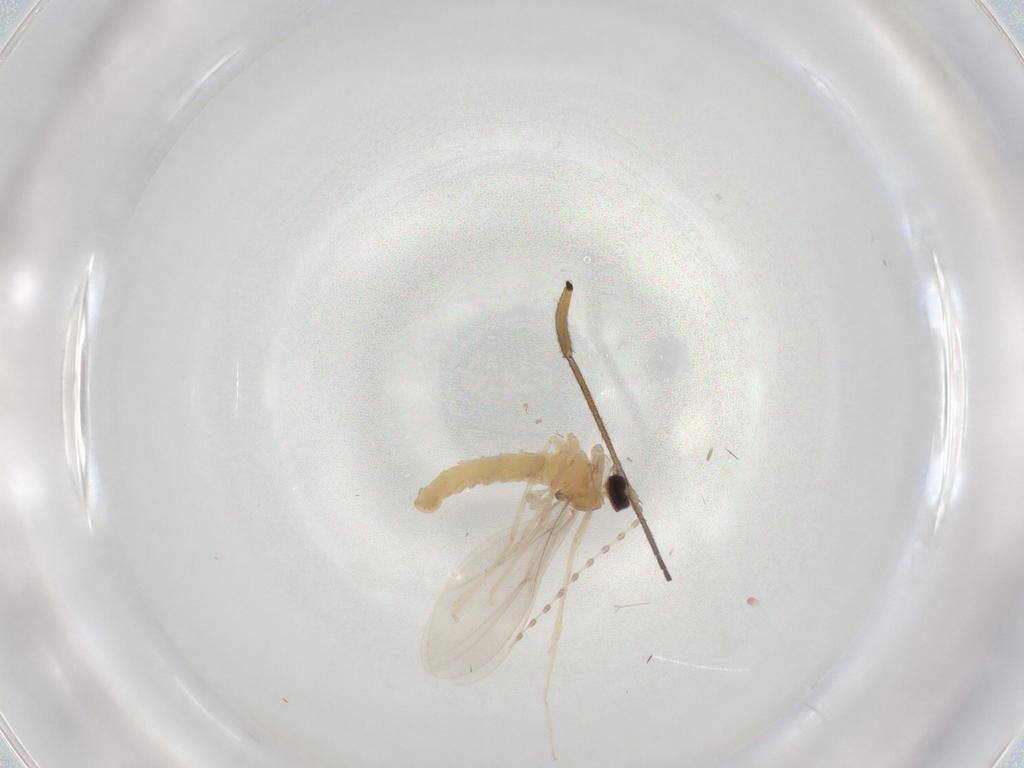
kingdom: Animalia
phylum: Arthropoda
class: Insecta
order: Diptera
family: Cecidomyiidae
